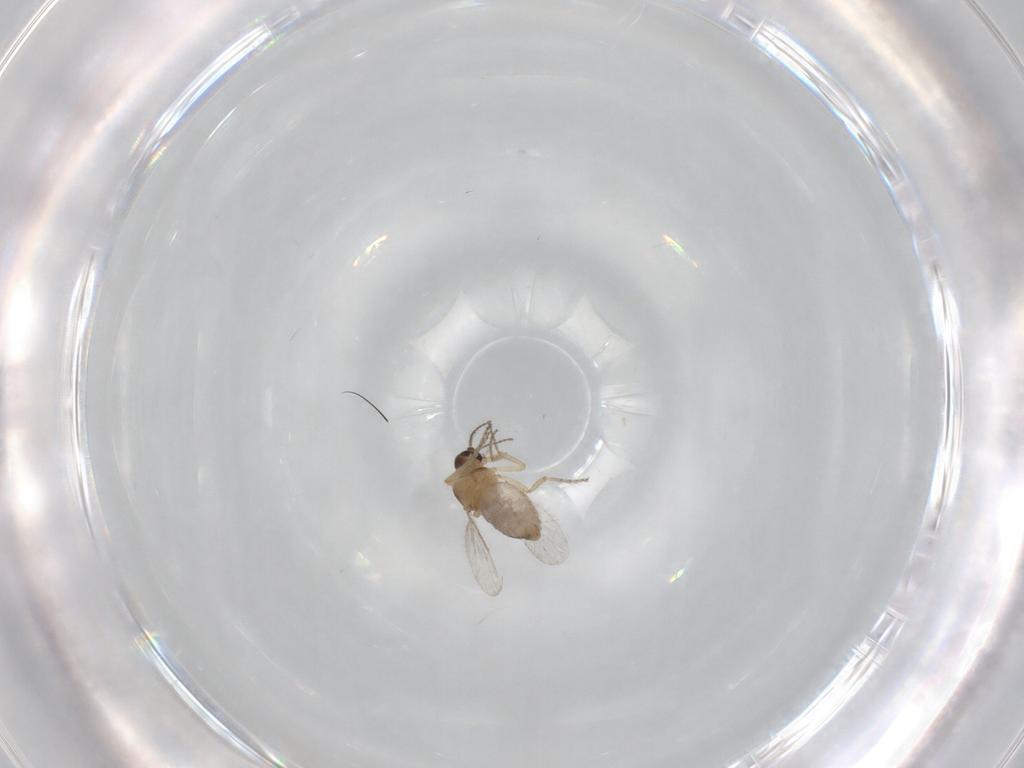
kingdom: Animalia
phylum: Arthropoda
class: Insecta
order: Diptera
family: Ceratopogonidae
